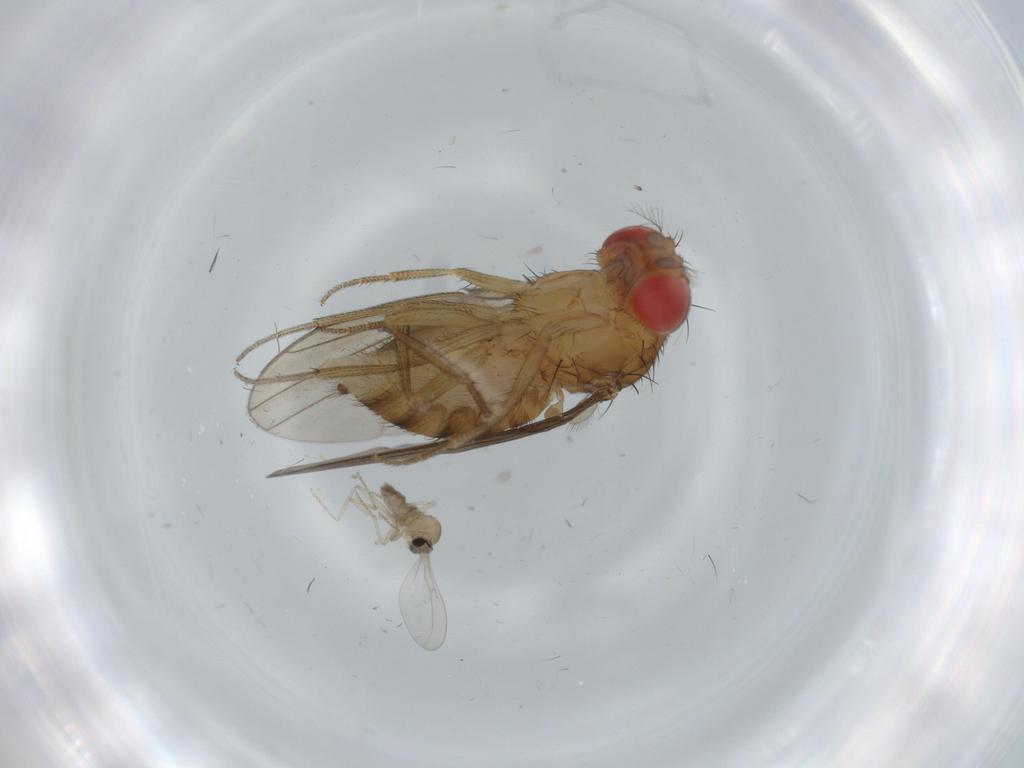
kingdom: Animalia
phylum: Arthropoda
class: Insecta
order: Diptera
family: Drosophilidae
